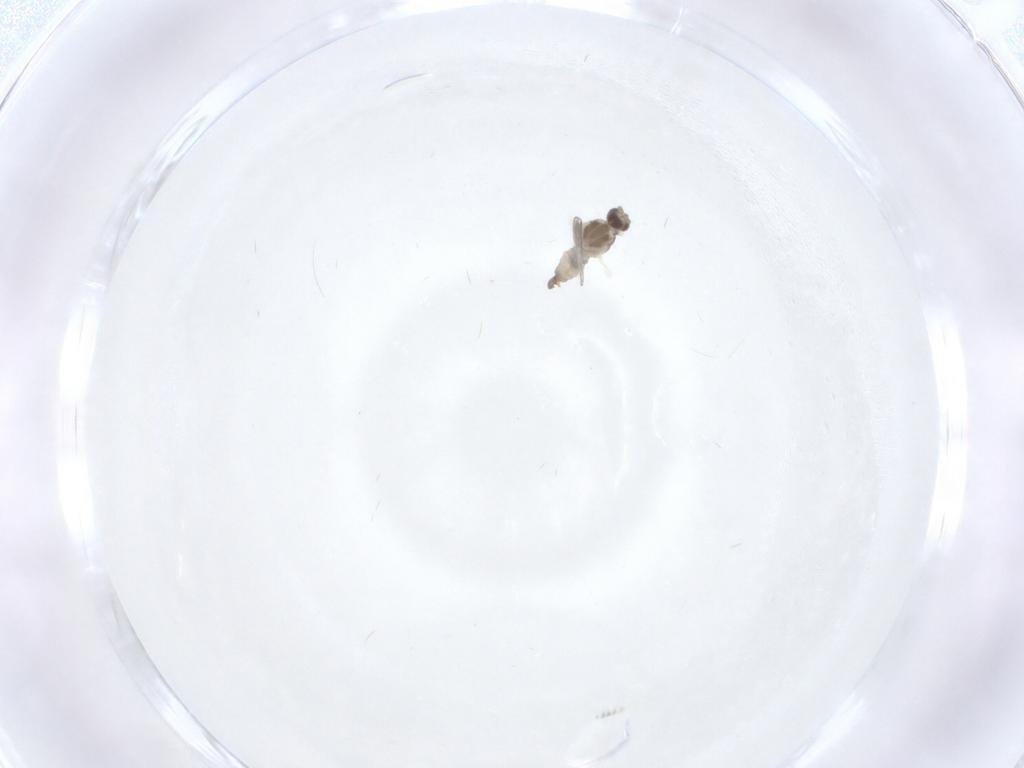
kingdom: Animalia
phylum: Arthropoda
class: Insecta
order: Diptera
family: Cecidomyiidae
